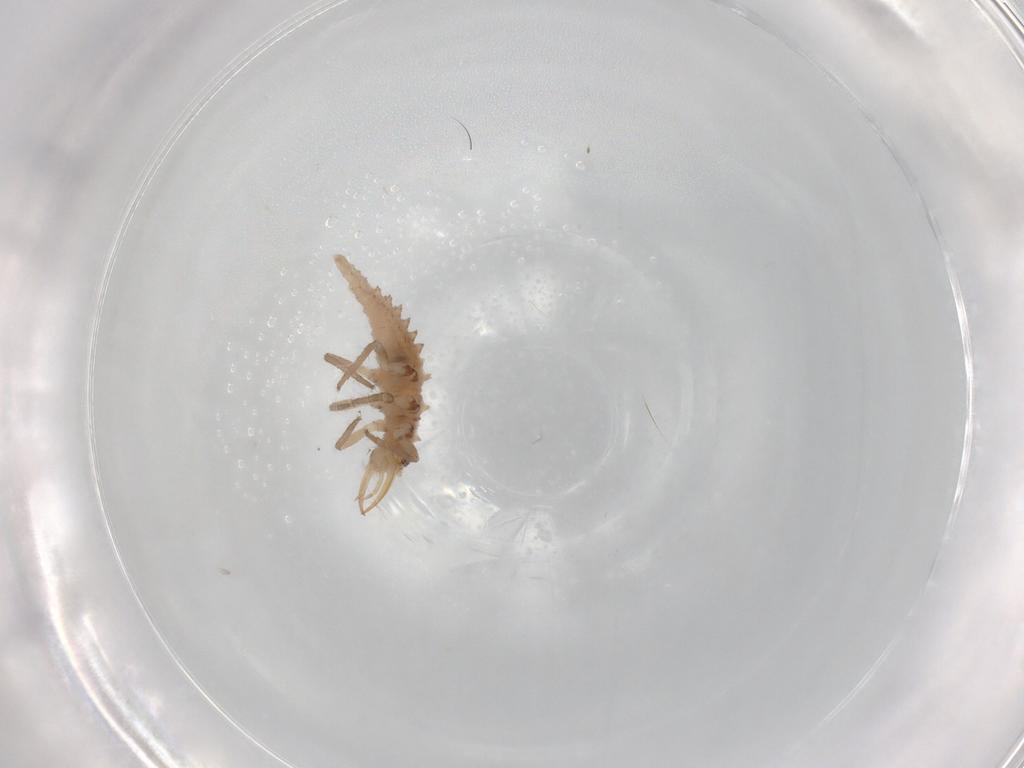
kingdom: Animalia
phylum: Arthropoda
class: Insecta
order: Neuroptera
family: Chrysopidae
